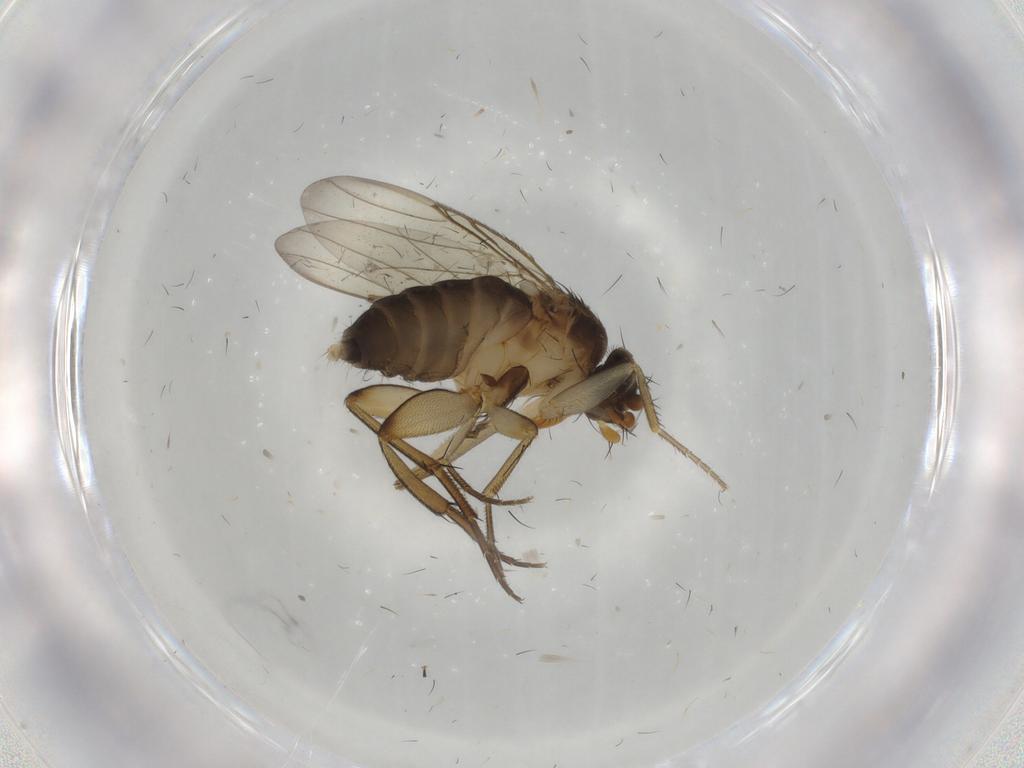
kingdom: Animalia
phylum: Arthropoda
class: Insecta
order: Diptera
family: Phoridae
